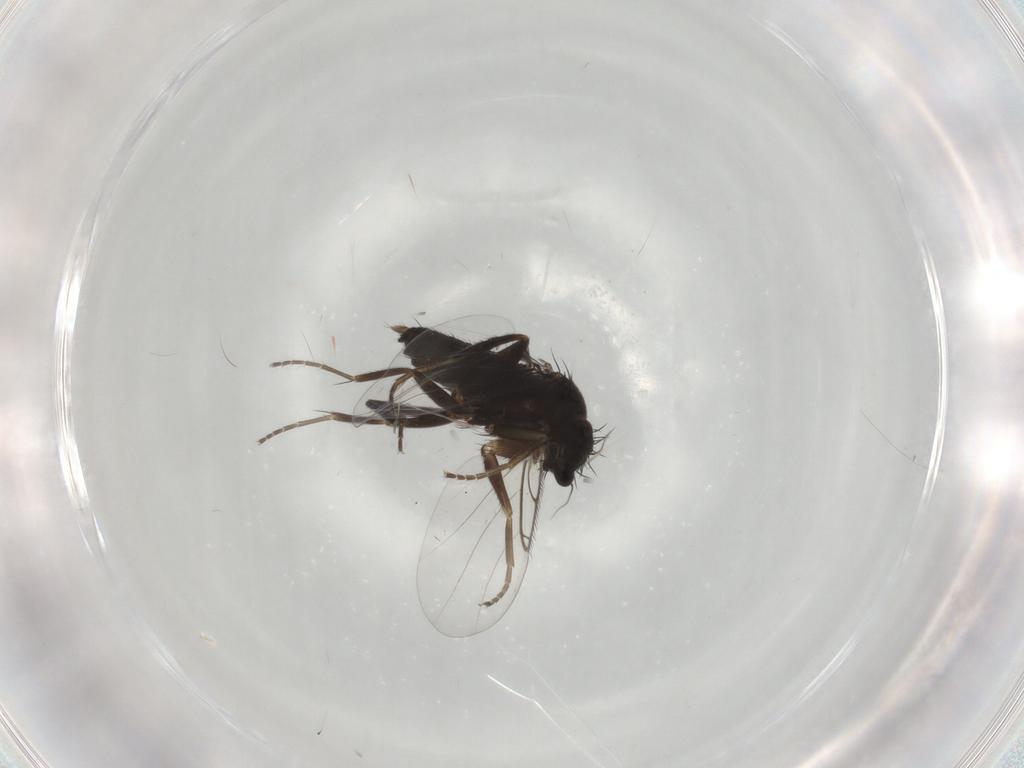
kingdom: Animalia
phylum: Arthropoda
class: Insecta
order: Diptera
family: Phoridae
